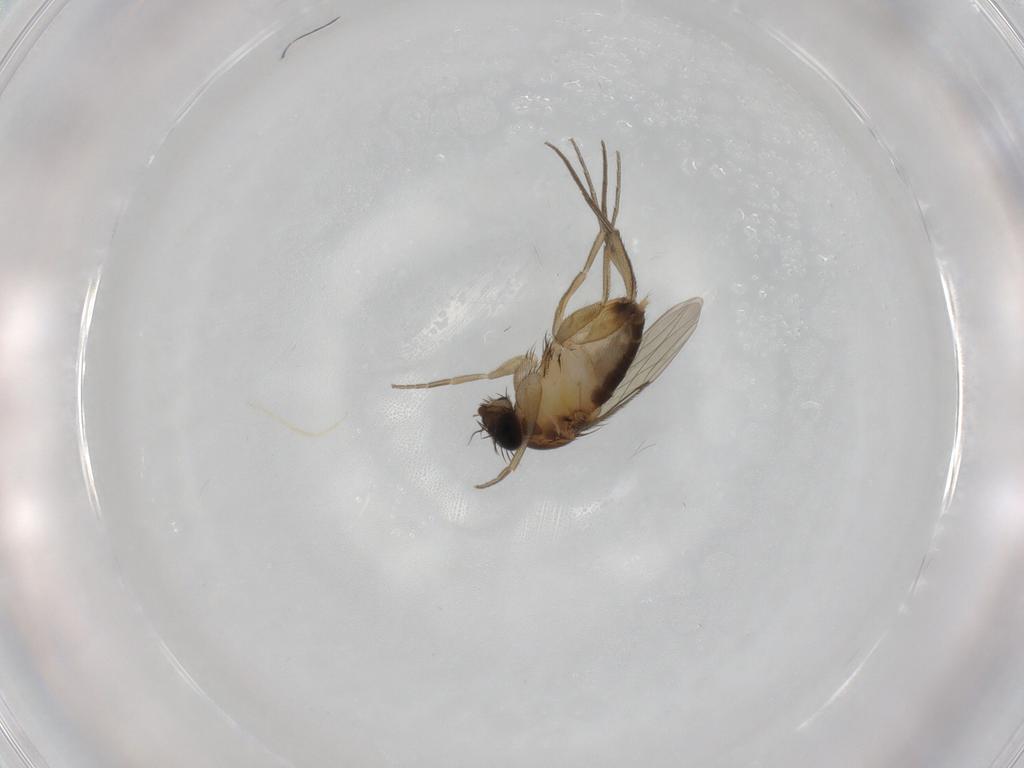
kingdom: Animalia
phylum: Arthropoda
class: Insecta
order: Diptera
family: Phoridae
